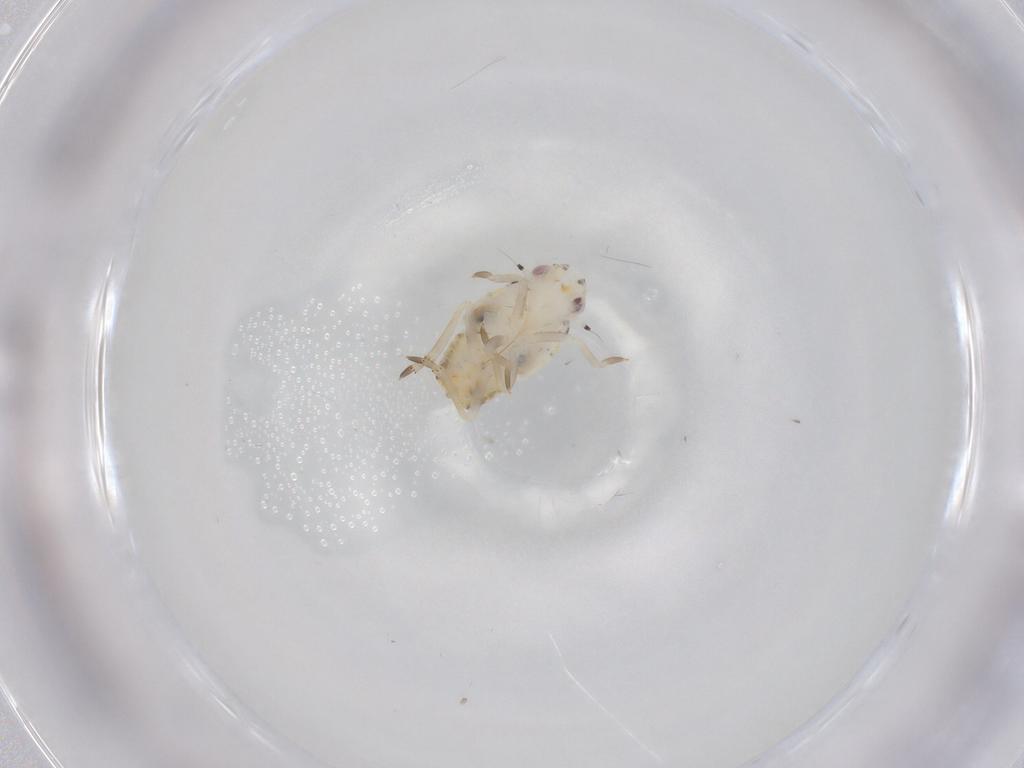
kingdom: Animalia
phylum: Arthropoda
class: Insecta
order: Hemiptera
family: Flatidae
